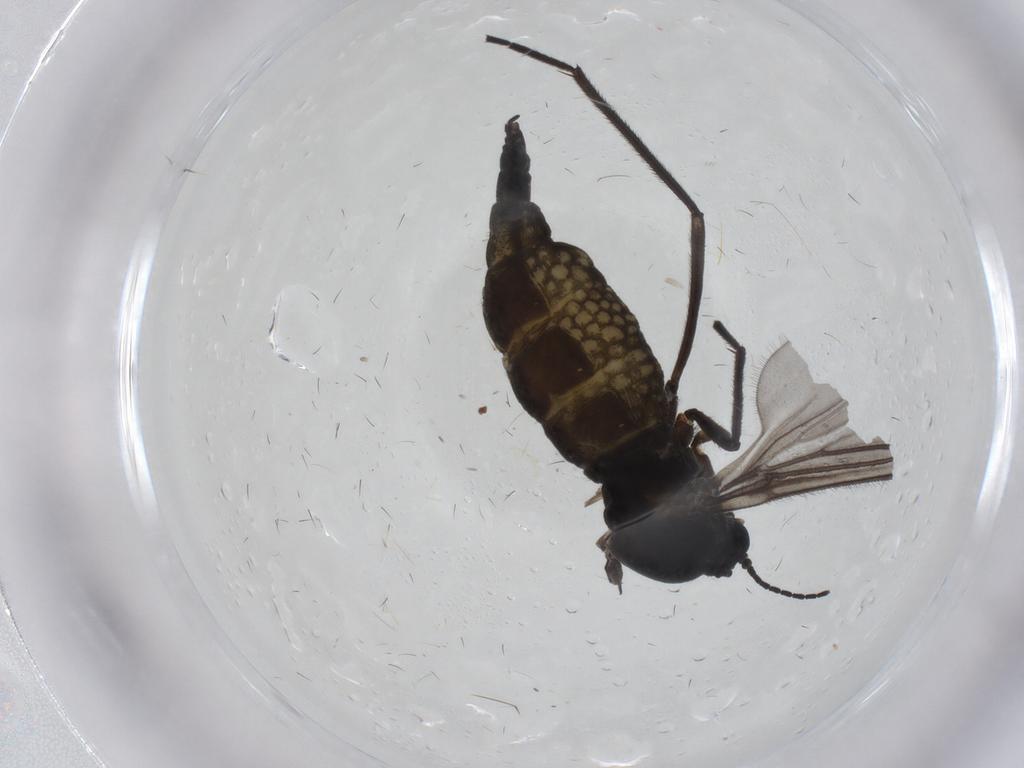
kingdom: Animalia
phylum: Arthropoda
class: Insecta
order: Diptera
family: Sciaridae
